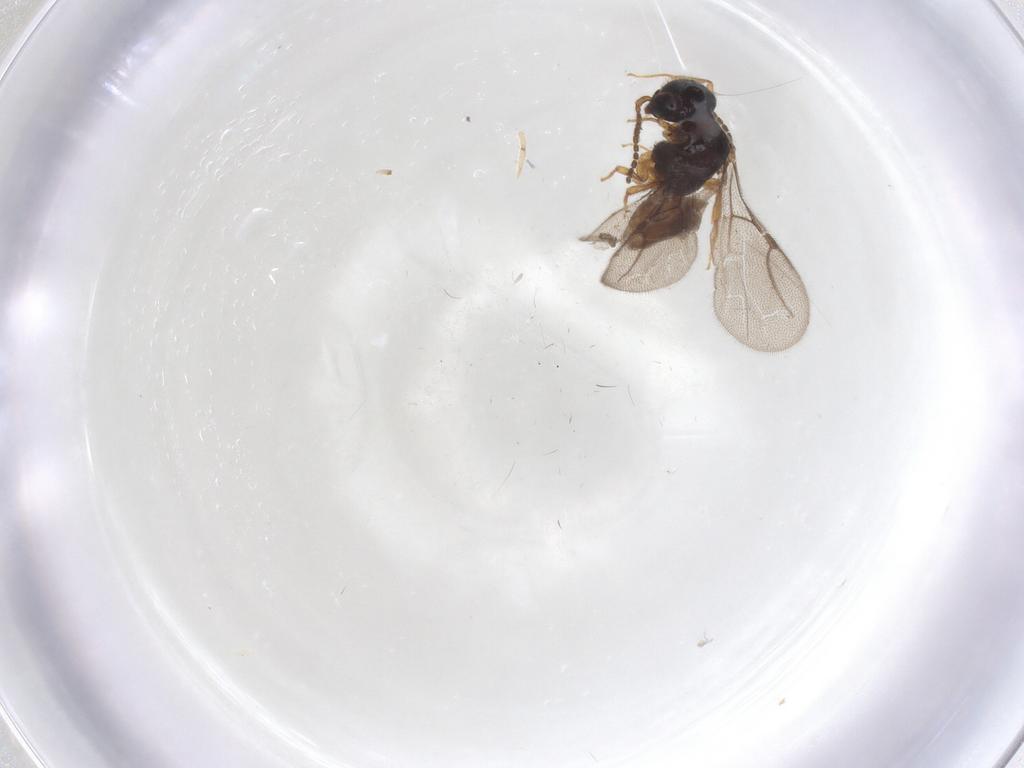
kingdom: Animalia
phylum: Arthropoda
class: Insecta
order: Hymenoptera
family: Bethylidae
